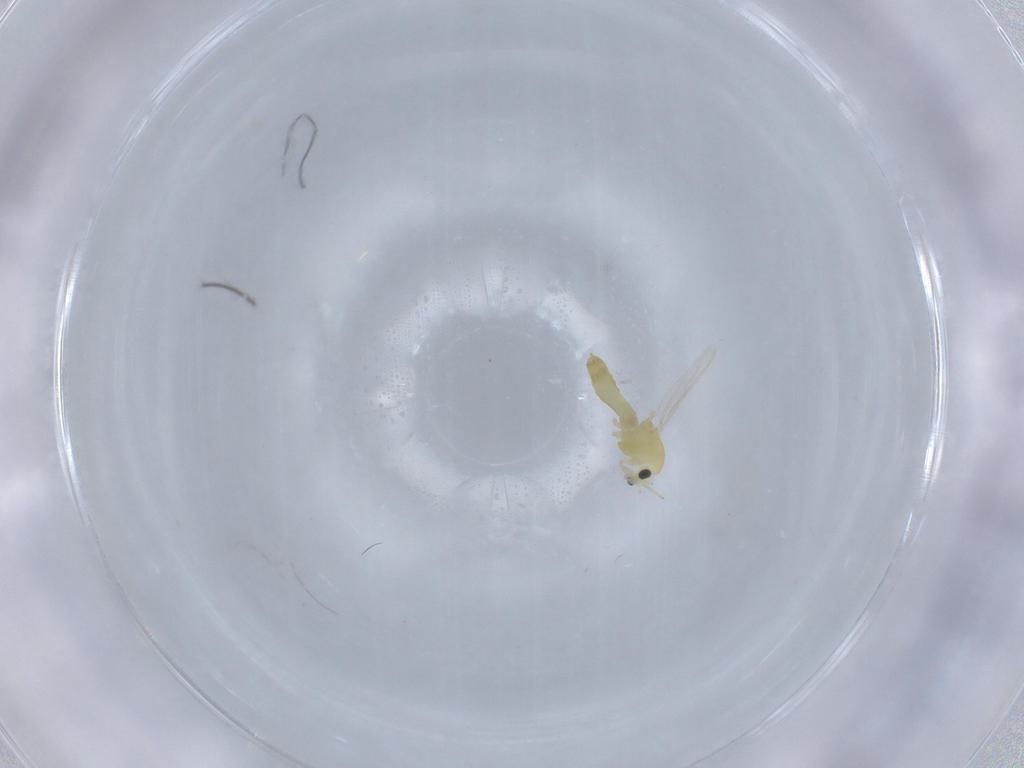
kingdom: Animalia
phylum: Arthropoda
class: Insecta
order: Diptera
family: Chironomidae
